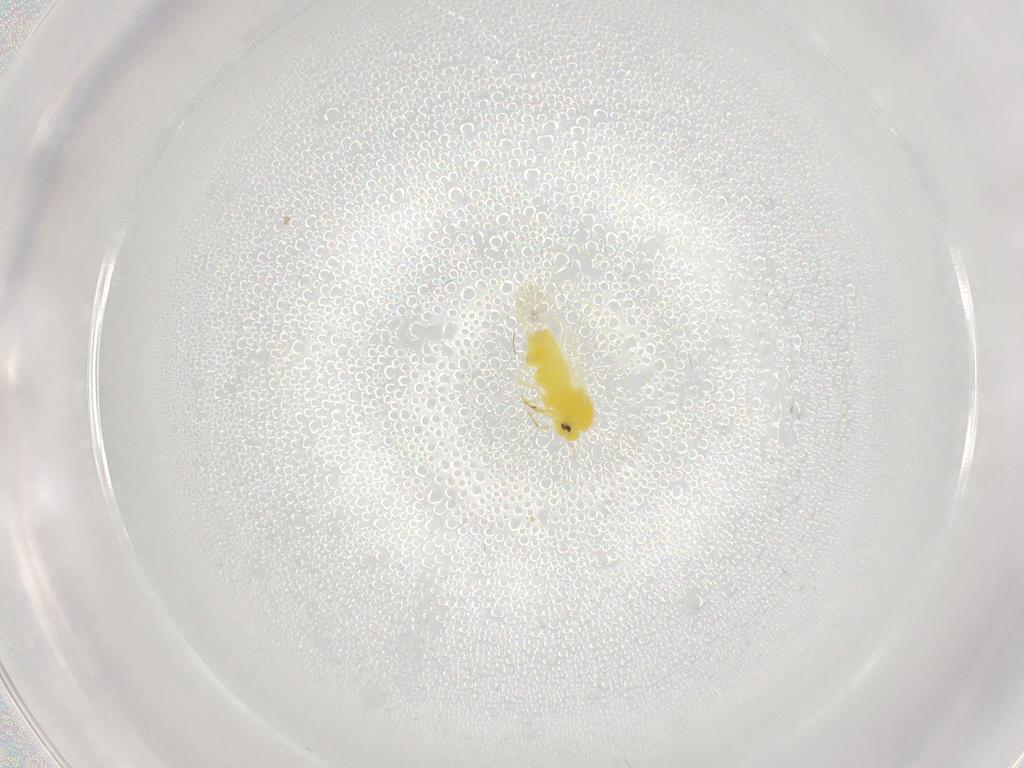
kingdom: Animalia
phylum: Arthropoda
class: Insecta
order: Hemiptera
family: Aleyrodidae
